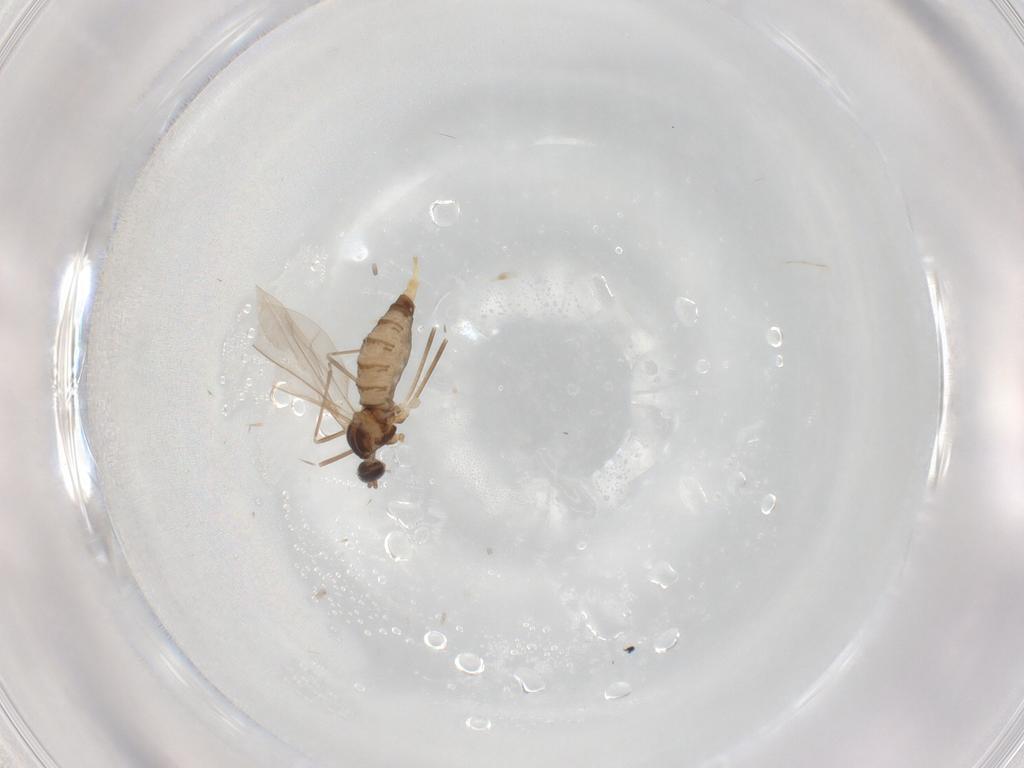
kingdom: Animalia
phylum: Arthropoda
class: Insecta
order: Diptera
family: Cecidomyiidae
